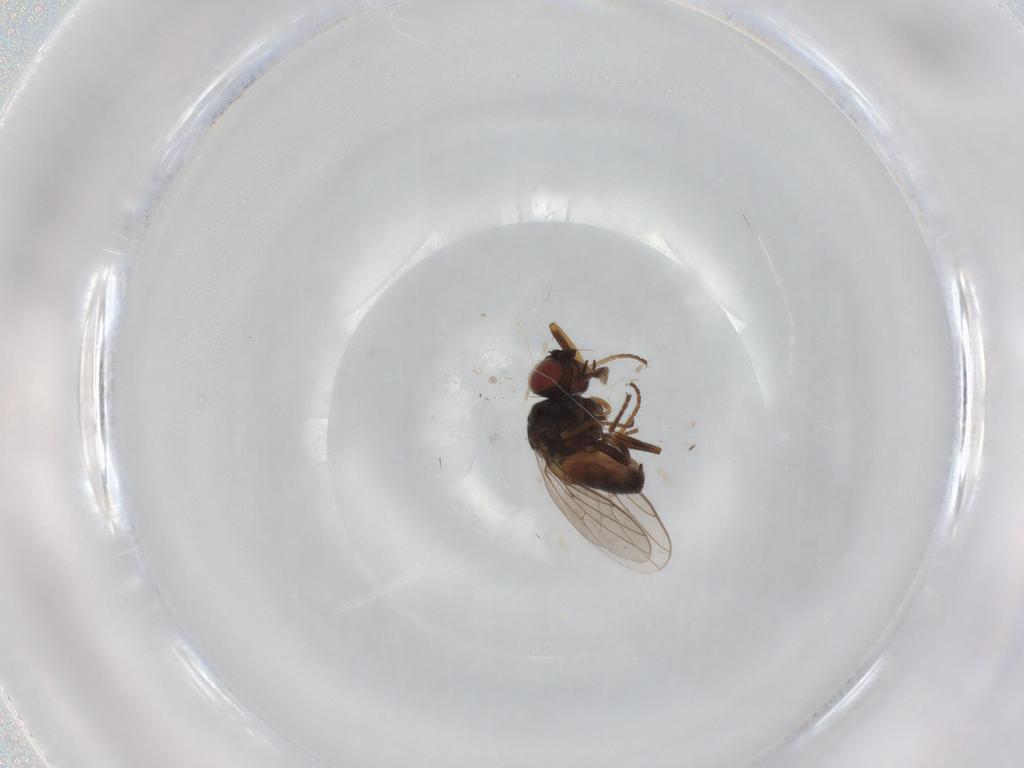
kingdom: Animalia
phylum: Arthropoda
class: Insecta
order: Diptera
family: Chloropidae
